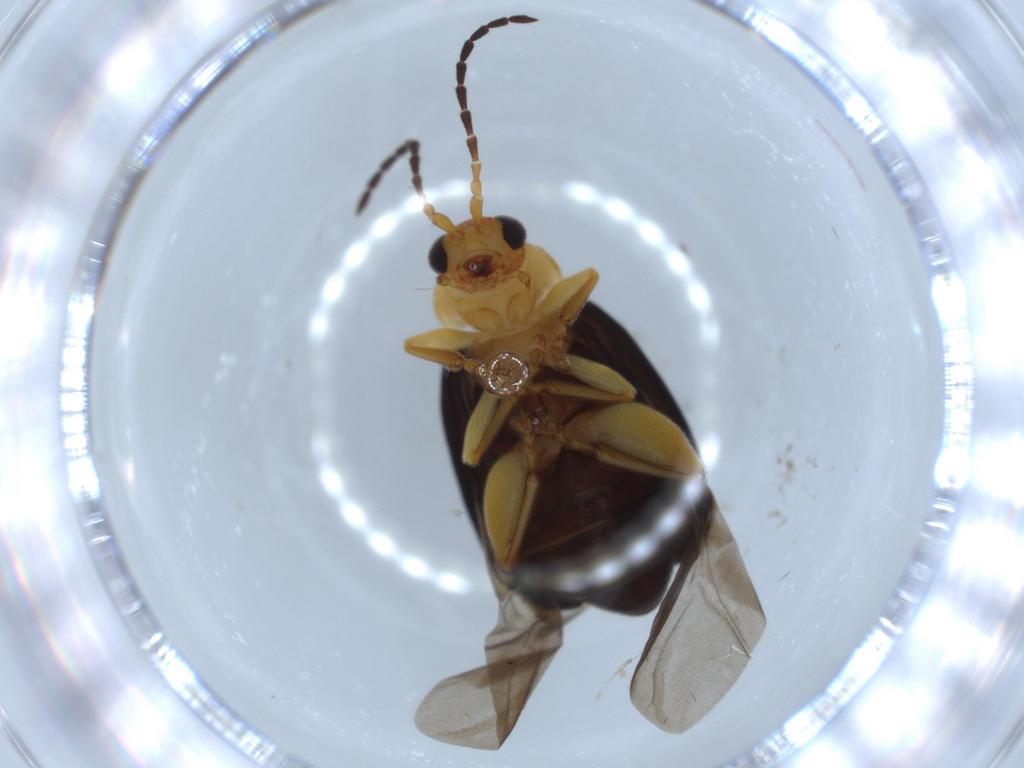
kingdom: Animalia
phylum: Arthropoda
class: Insecta
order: Coleoptera
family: Chrysomelidae
